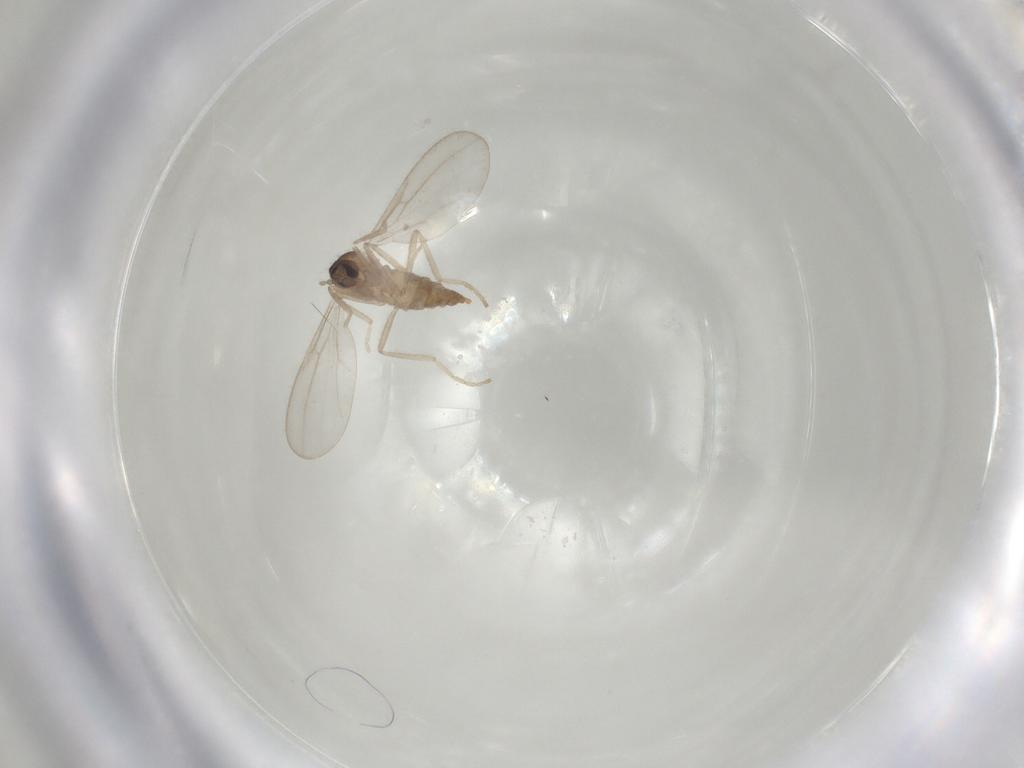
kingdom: Animalia
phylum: Arthropoda
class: Insecta
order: Diptera
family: Cecidomyiidae
